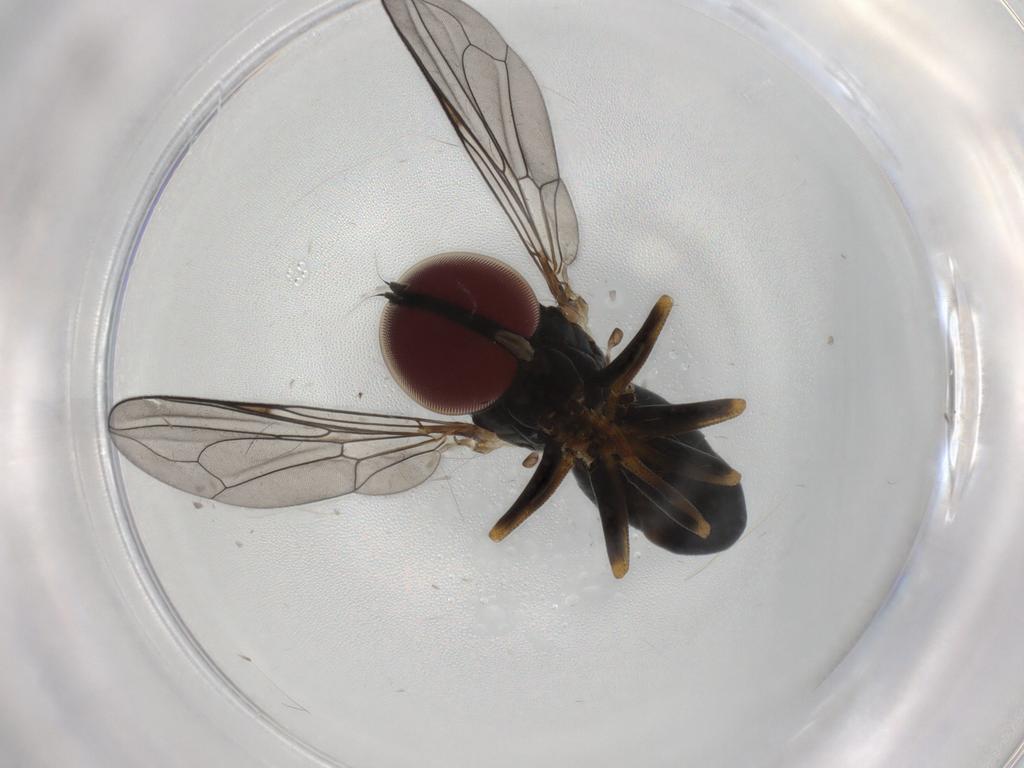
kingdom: Animalia
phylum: Arthropoda
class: Insecta
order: Diptera
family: Pipunculidae
